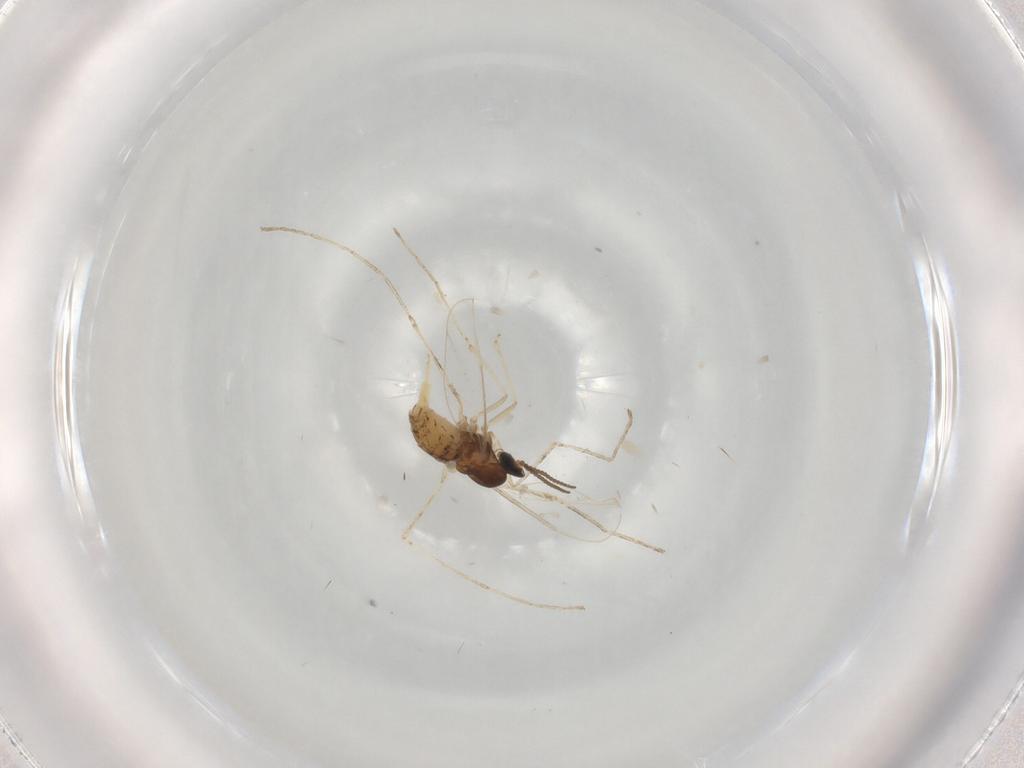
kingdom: Animalia
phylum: Arthropoda
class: Insecta
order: Diptera
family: Cecidomyiidae
